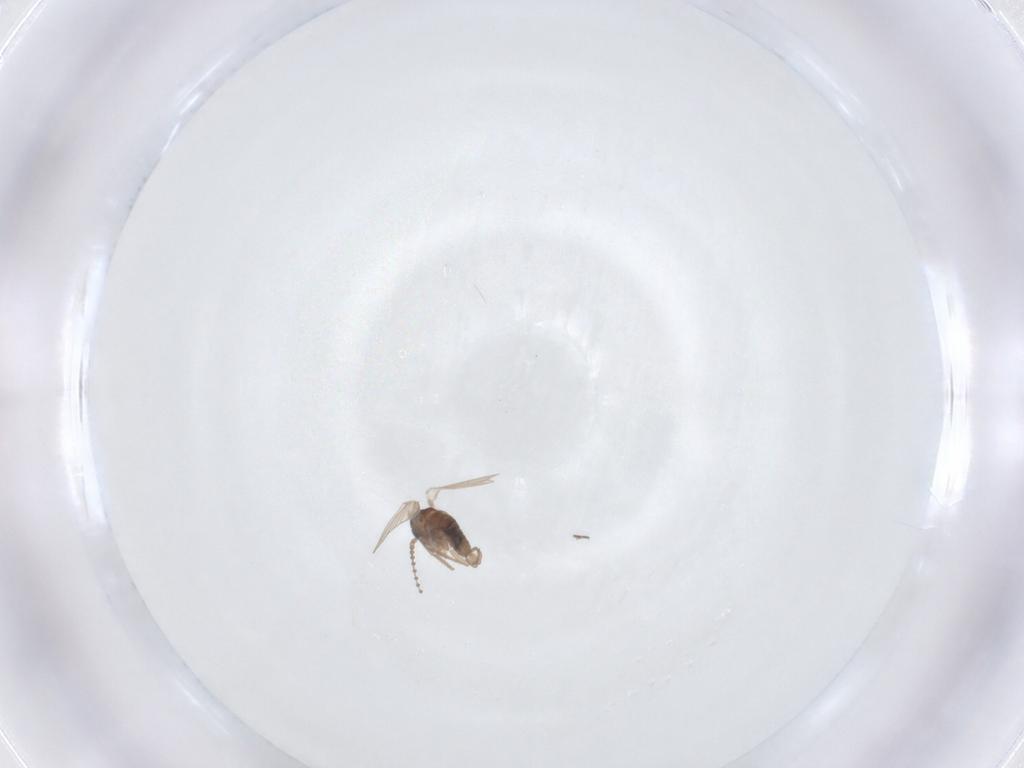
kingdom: Animalia
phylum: Arthropoda
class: Insecta
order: Diptera
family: Psychodidae
